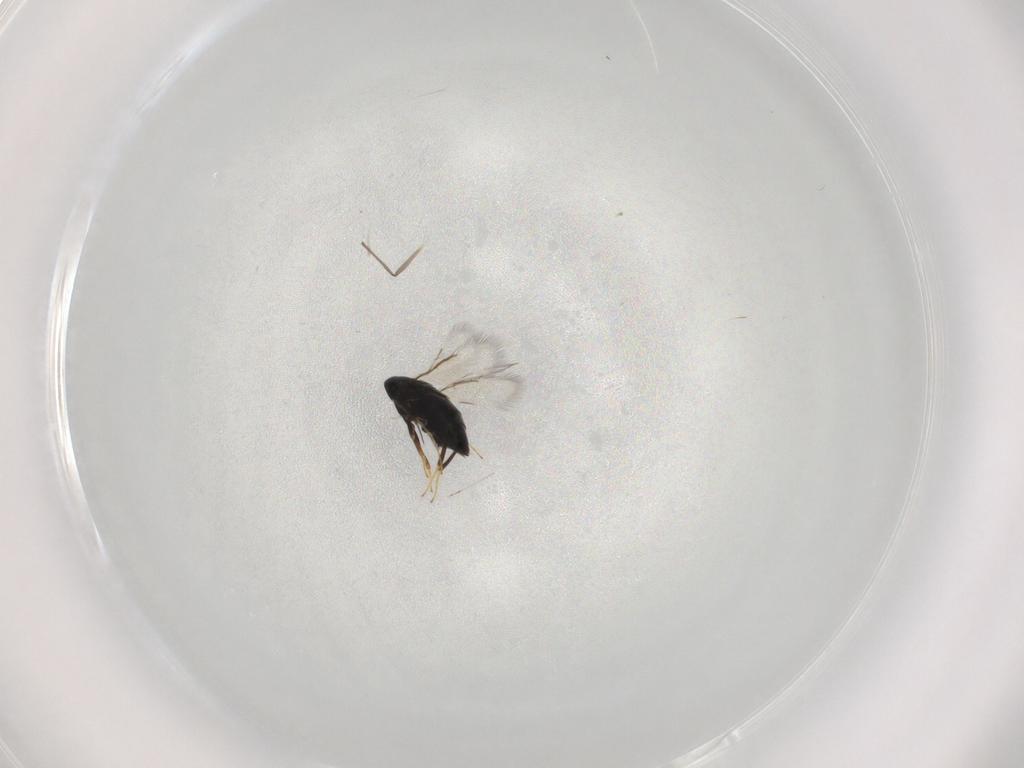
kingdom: Animalia
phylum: Arthropoda
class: Insecta
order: Hymenoptera
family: Signiphoridae
